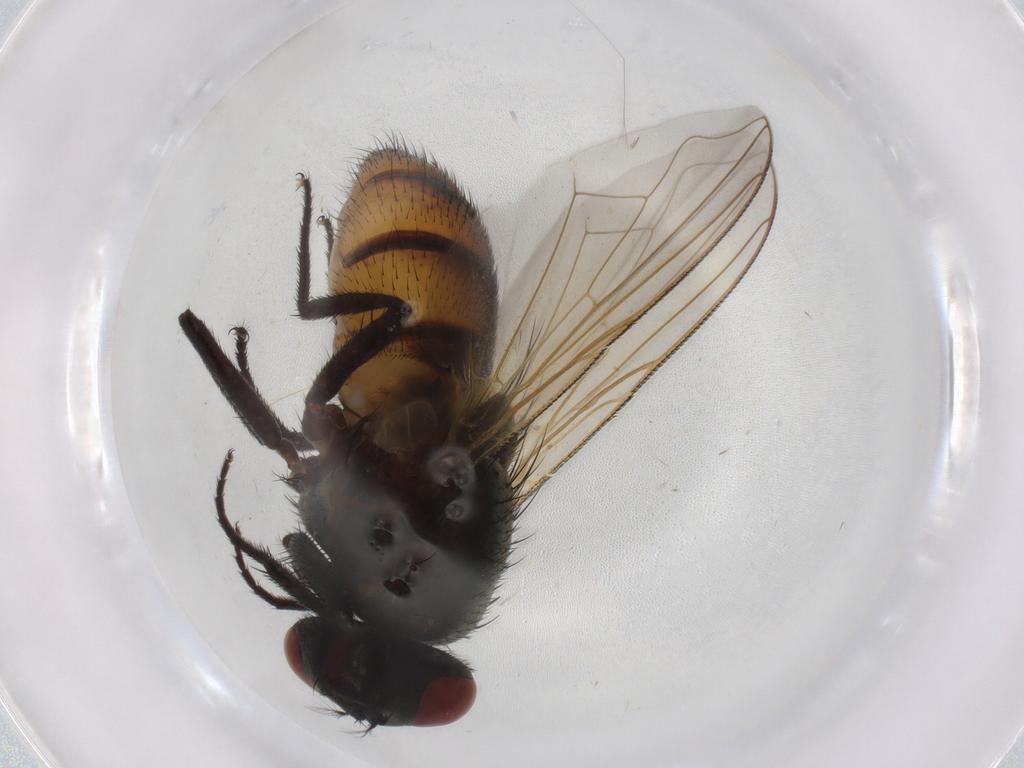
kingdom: Animalia
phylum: Arthropoda
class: Insecta
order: Diptera
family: Muscidae
